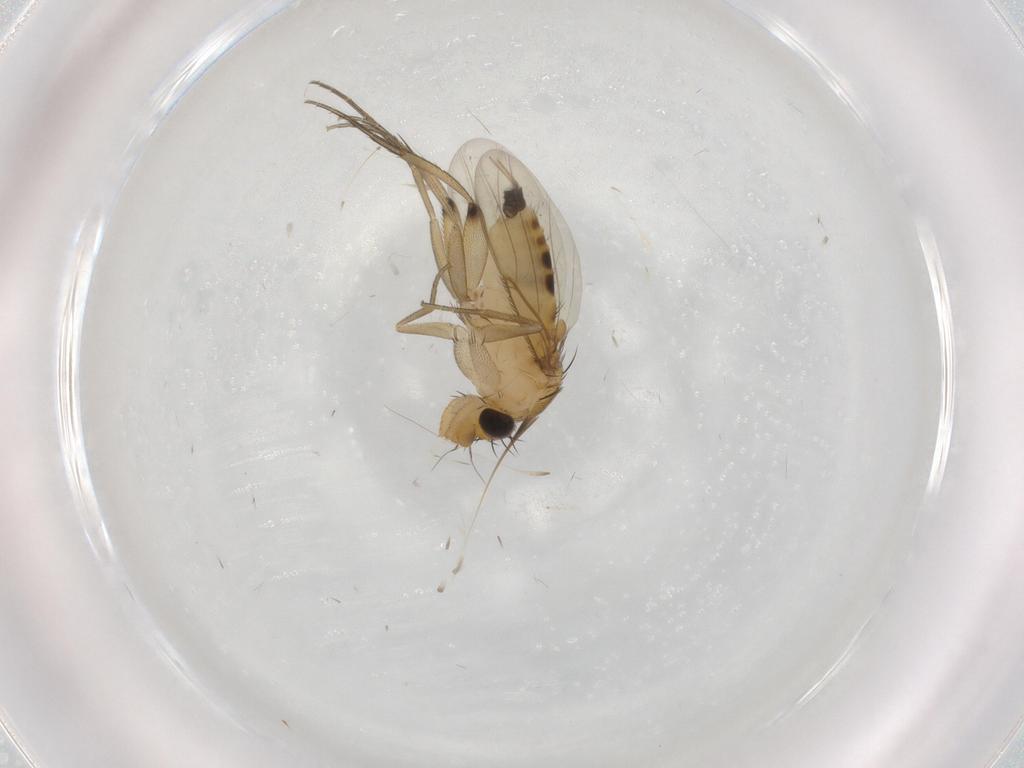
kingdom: Animalia
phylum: Arthropoda
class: Insecta
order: Diptera
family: Phoridae
